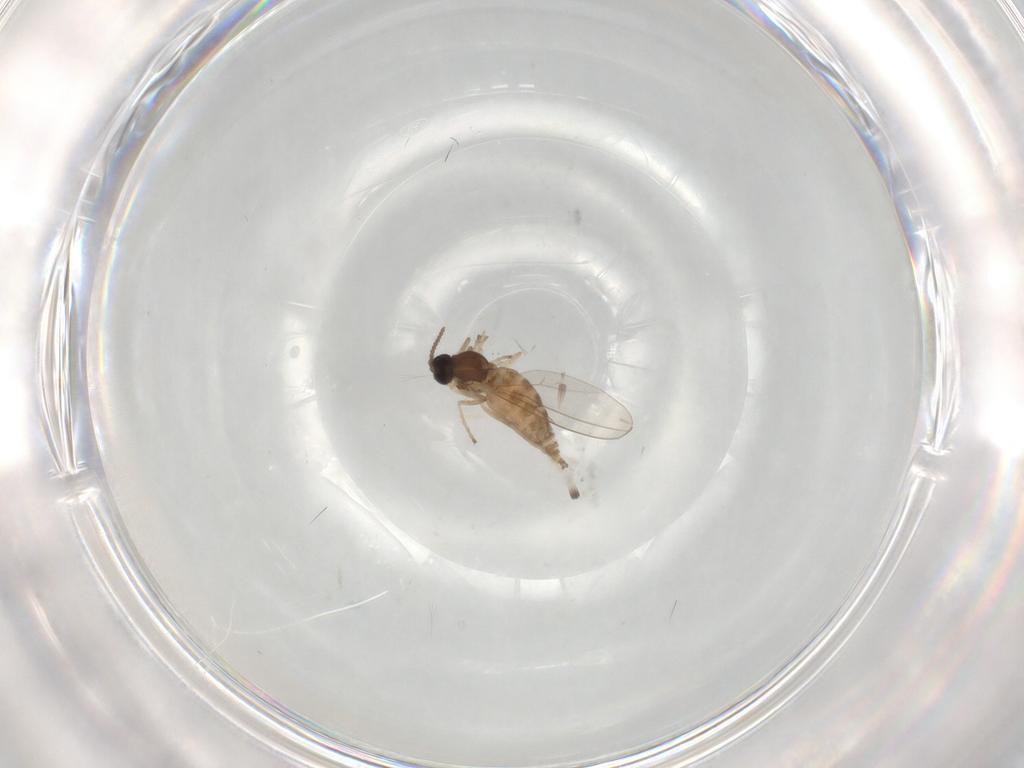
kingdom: Animalia
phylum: Arthropoda
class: Insecta
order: Diptera
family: Cecidomyiidae
